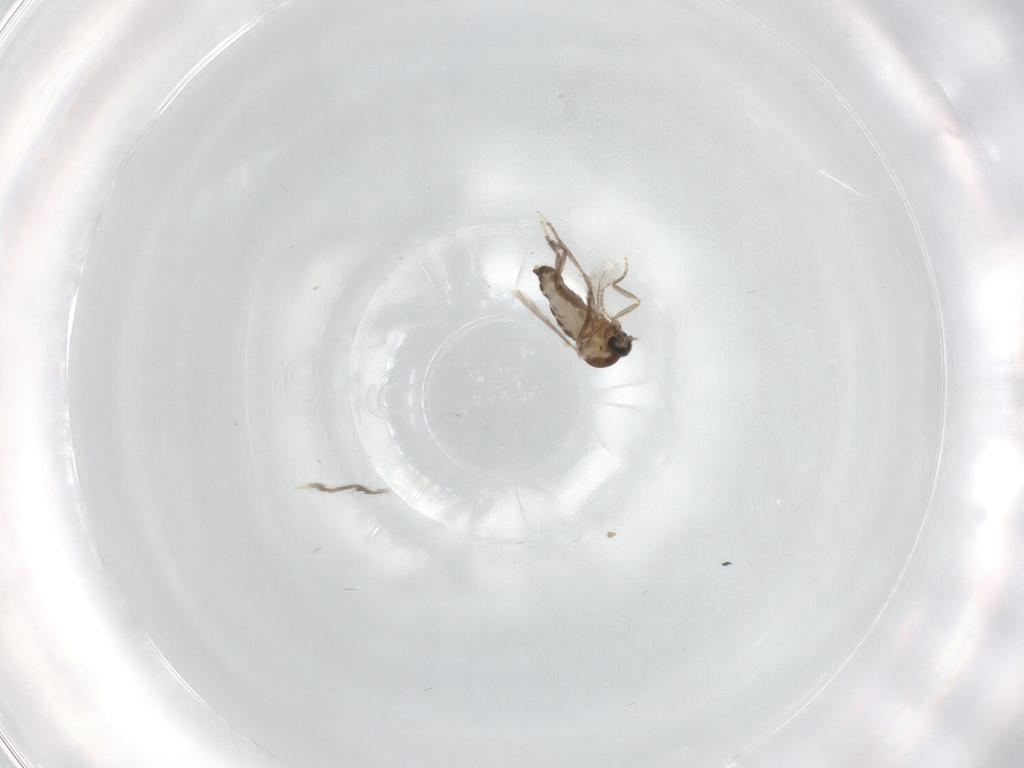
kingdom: Animalia
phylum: Arthropoda
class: Insecta
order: Diptera
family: Ceratopogonidae
